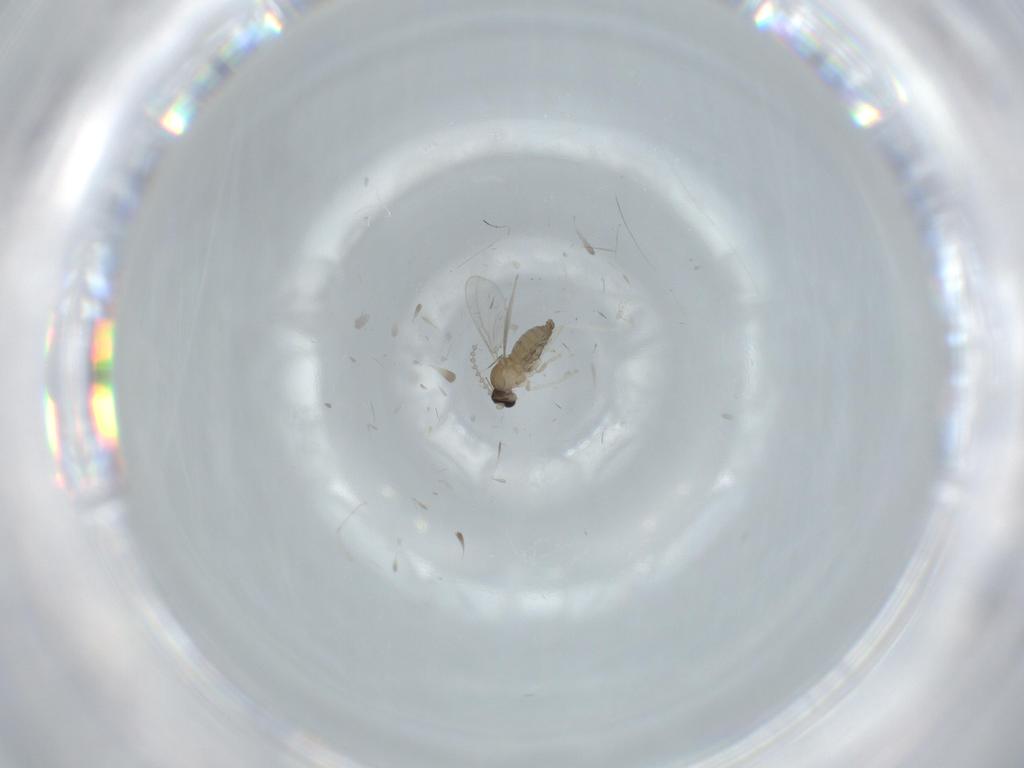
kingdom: Animalia
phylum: Arthropoda
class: Insecta
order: Diptera
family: Cecidomyiidae
